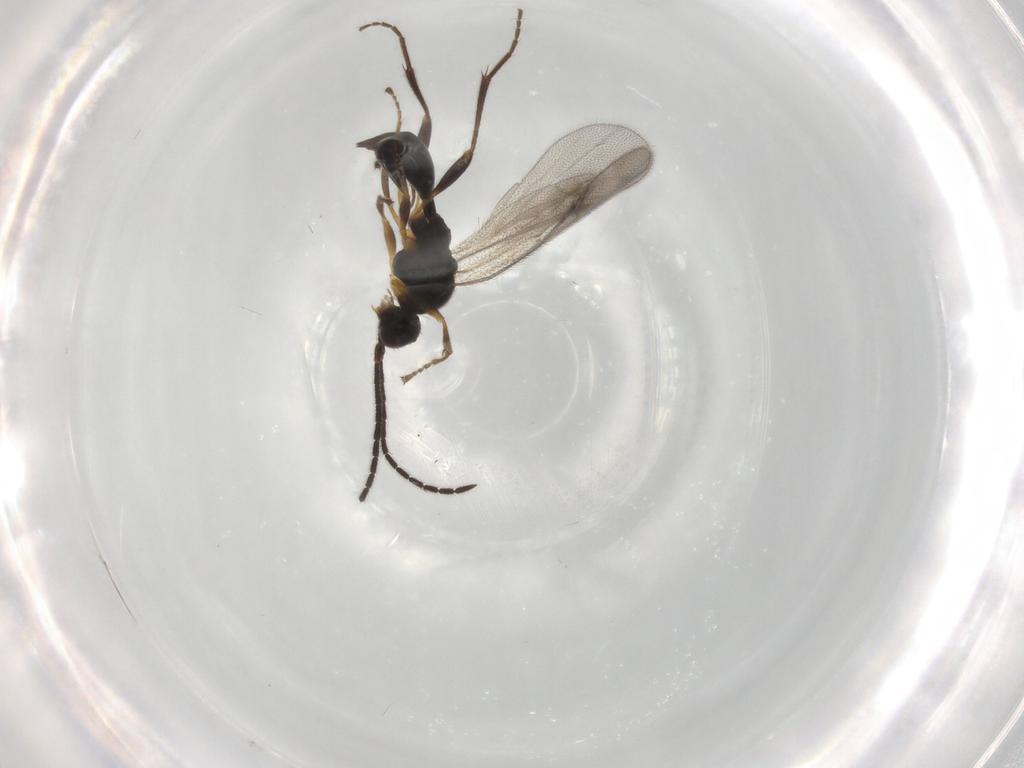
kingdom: Animalia
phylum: Arthropoda
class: Insecta
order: Hymenoptera
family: Proctotrupidae
